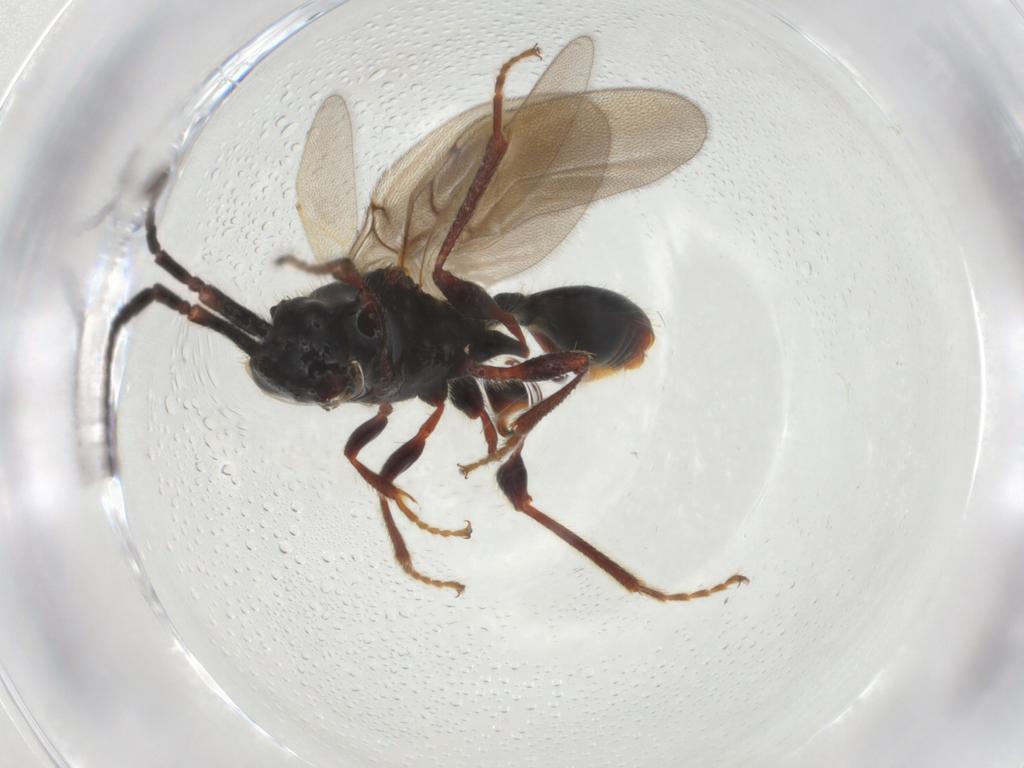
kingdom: Animalia
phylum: Arthropoda
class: Insecta
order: Hymenoptera
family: Diapriidae
